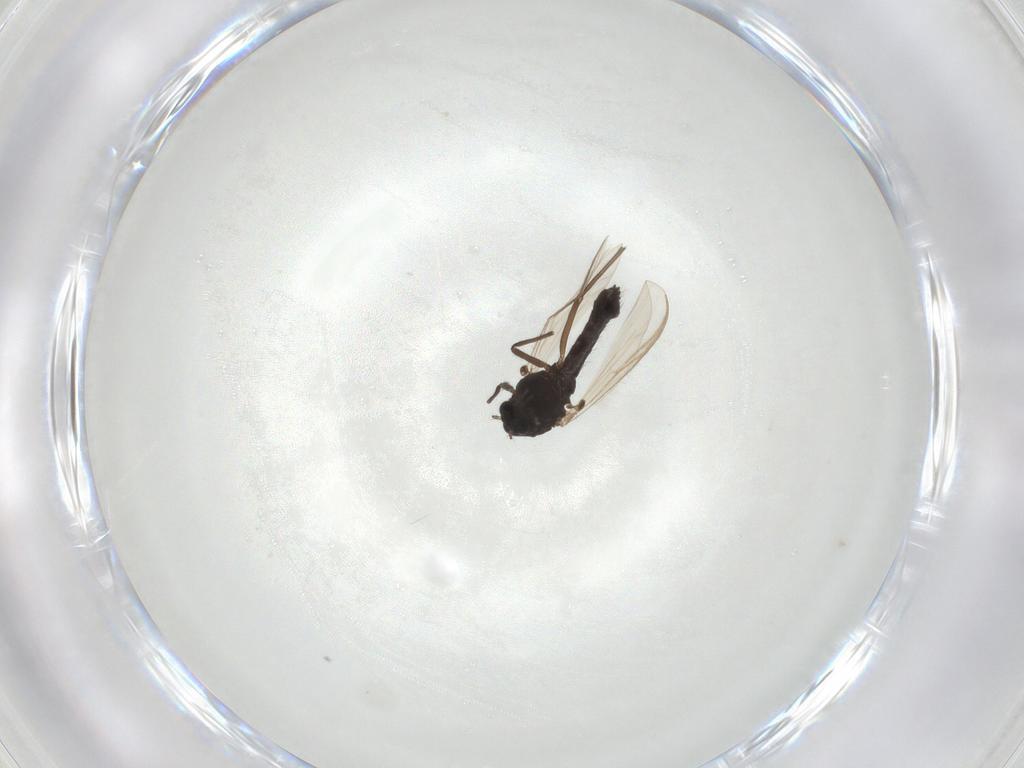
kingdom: Animalia
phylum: Arthropoda
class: Insecta
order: Diptera
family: Chironomidae
